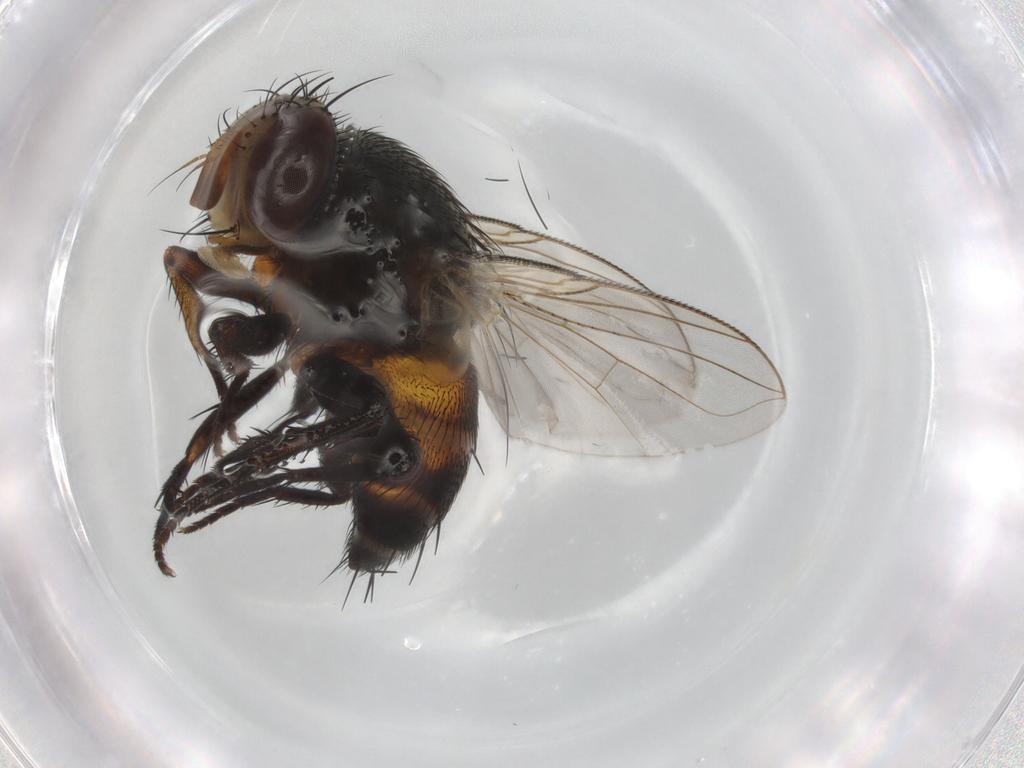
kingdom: Animalia
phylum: Arthropoda
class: Insecta
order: Diptera
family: Tachinidae
